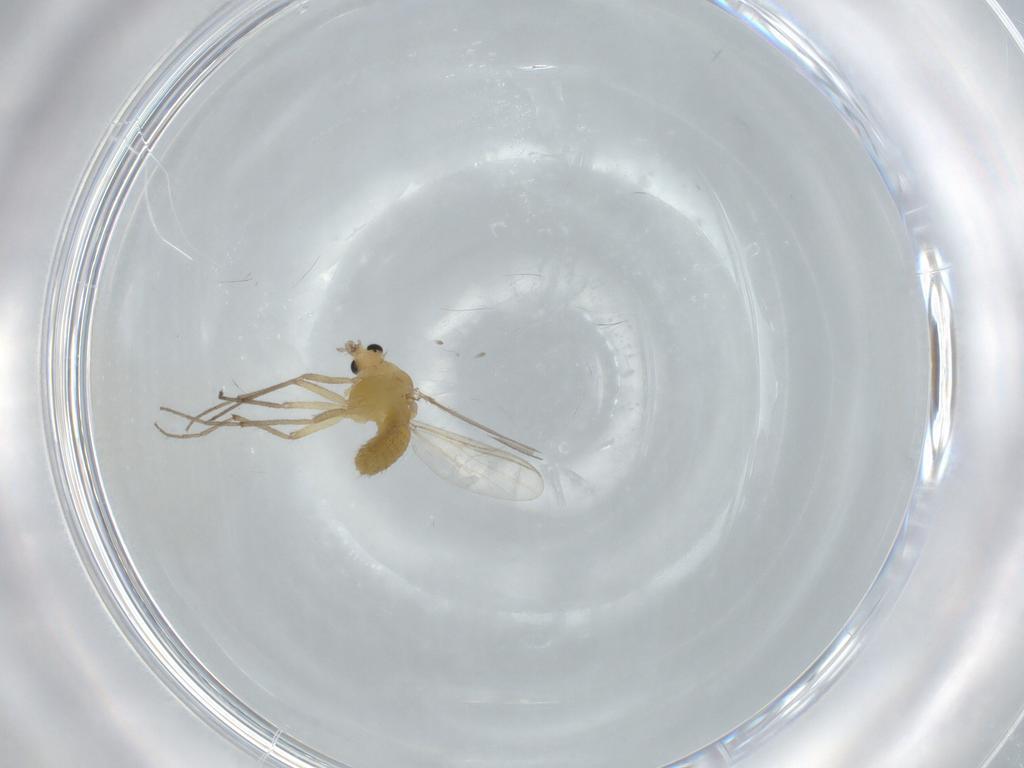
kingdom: Animalia
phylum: Arthropoda
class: Insecta
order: Diptera
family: Chironomidae
